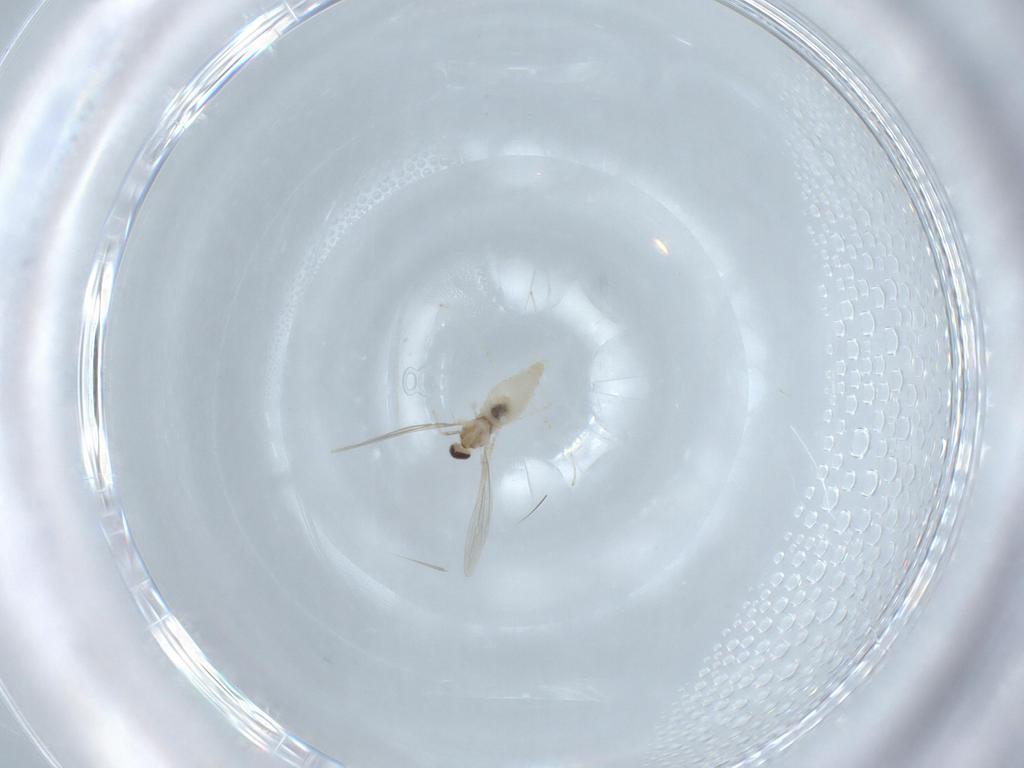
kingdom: Animalia
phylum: Arthropoda
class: Insecta
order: Diptera
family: Cecidomyiidae
